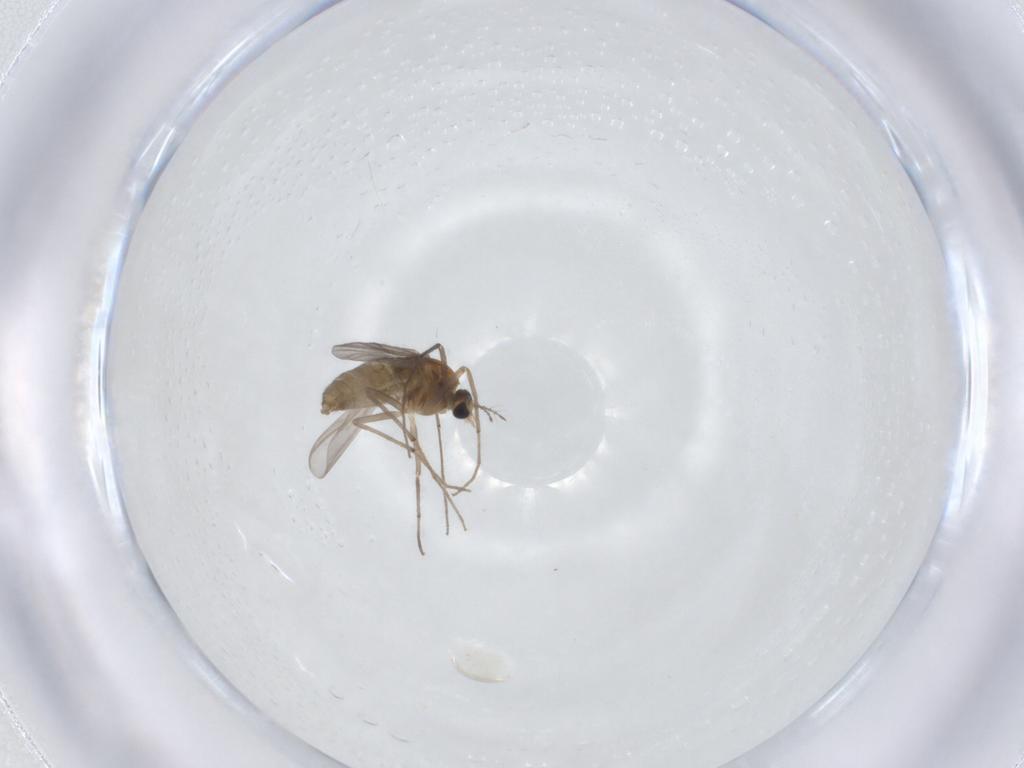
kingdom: Animalia
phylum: Arthropoda
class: Insecta
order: Diptera
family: Chironomidae
